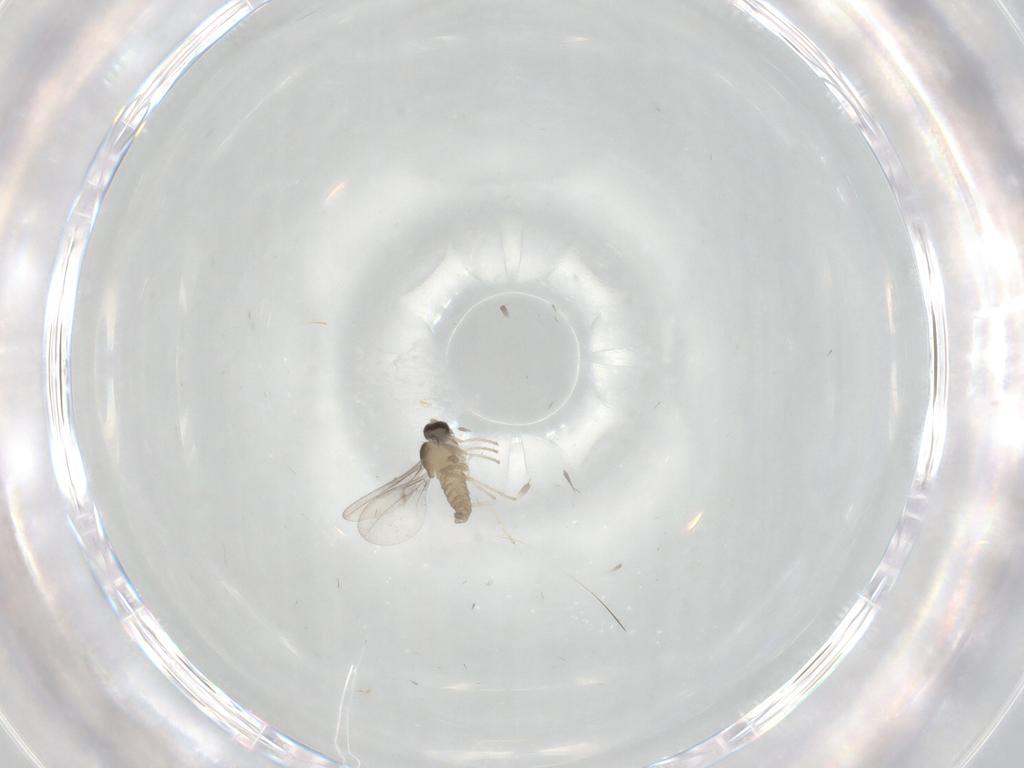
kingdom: Animalia
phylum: Arthropoda
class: Insecta
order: Diptera
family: Cecidomyiidae
